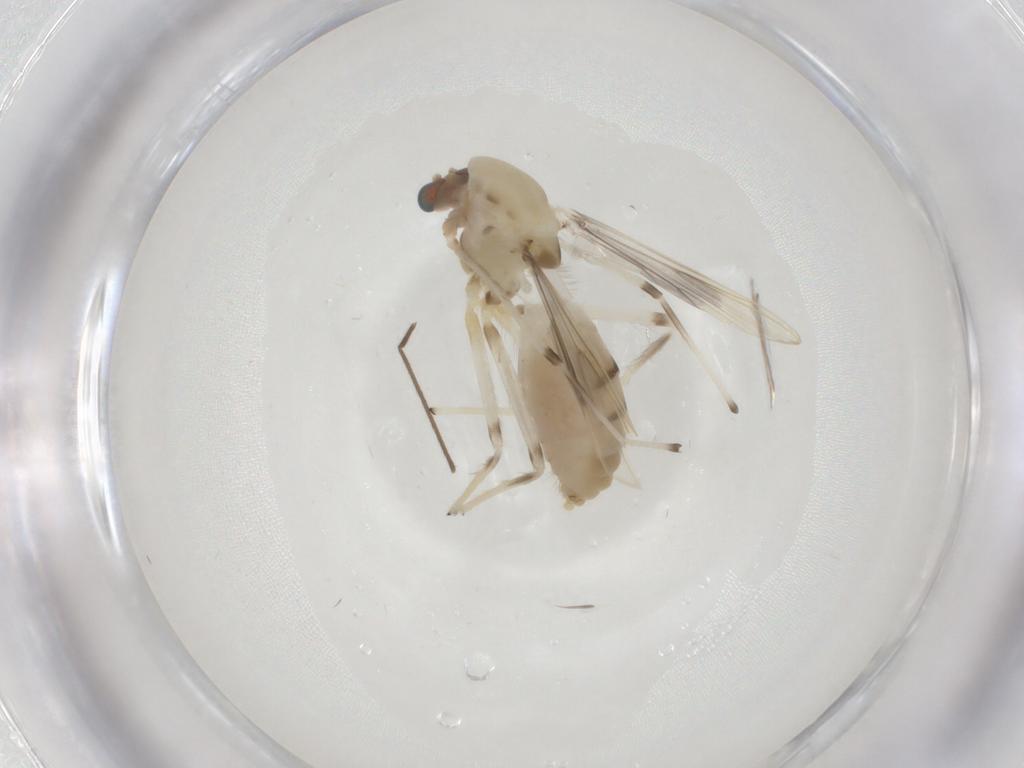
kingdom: Animalia
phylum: Arthropoda
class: Insecta
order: Diptera
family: Chironomidae
